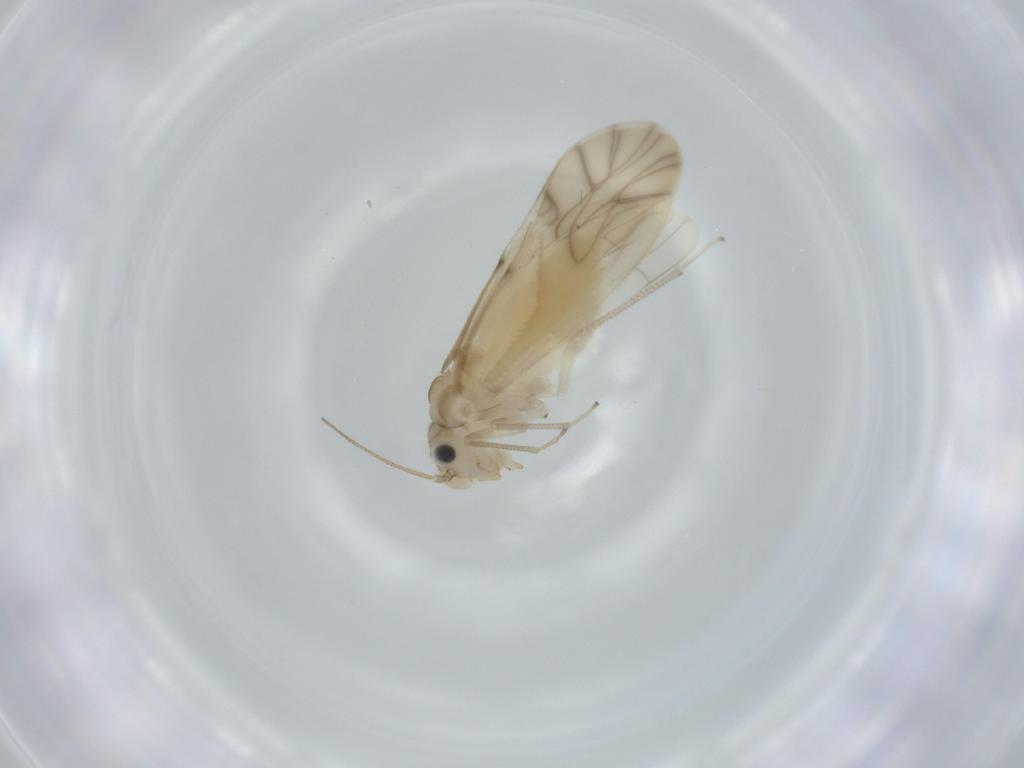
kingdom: Animalia
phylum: Arthropoda
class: Insecta
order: Psocodea
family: Caeciliusidae
